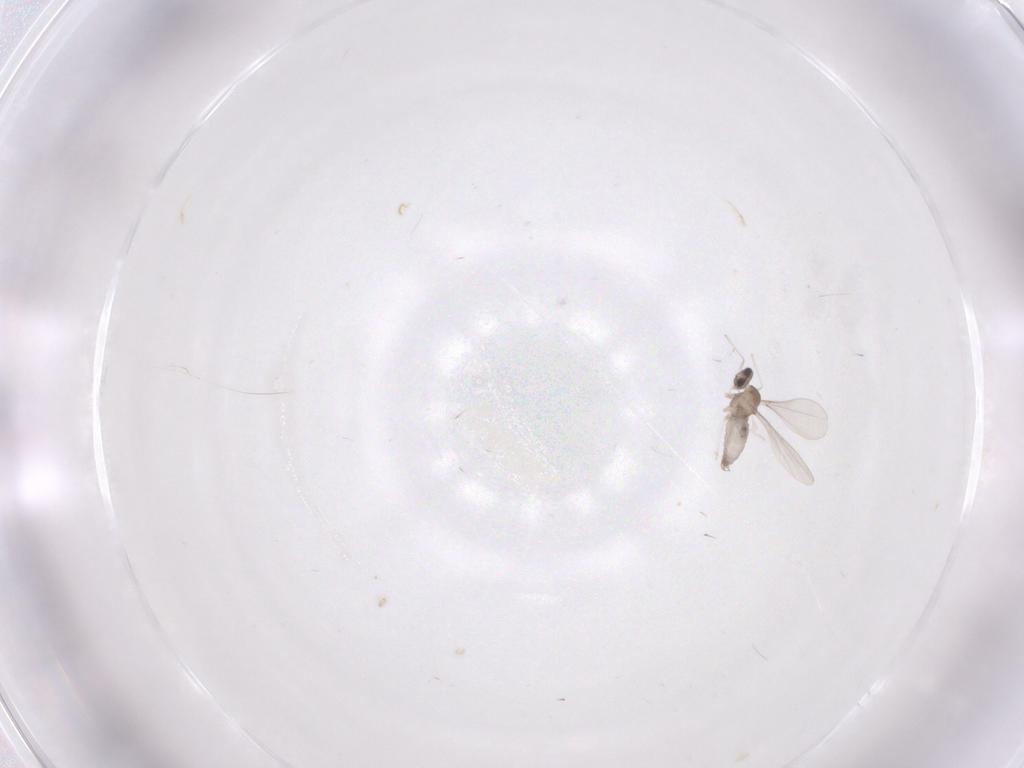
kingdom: Animalia
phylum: Arthropoda
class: Insecta
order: Diptera
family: Cecidomyiidae
